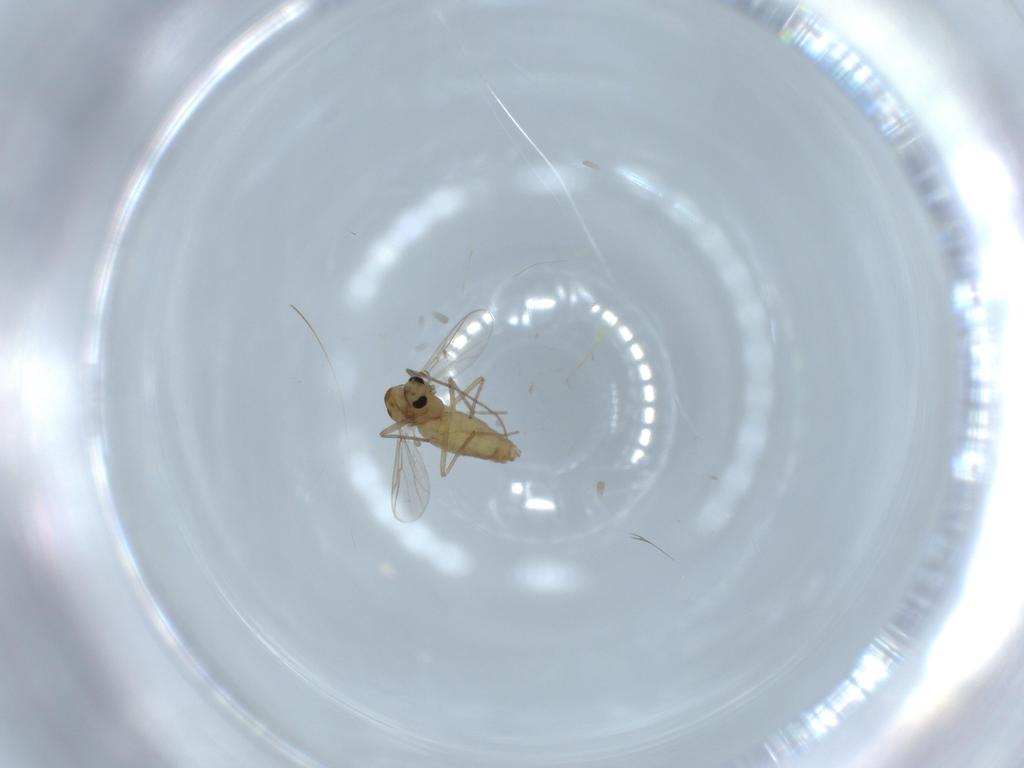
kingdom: Animalia
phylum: Arthropoda
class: Insecta
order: Diptera
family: Chironomidae
